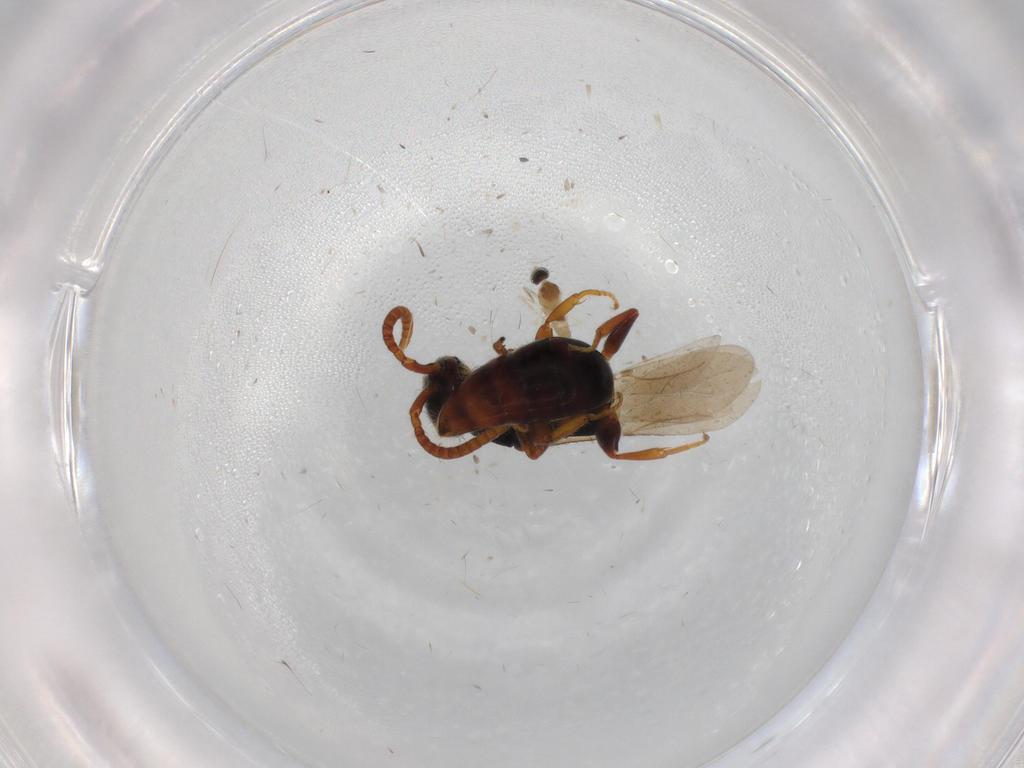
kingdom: Animalia
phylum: Arthropoda
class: Insecta
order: Diptera
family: Cecidomyiidae
